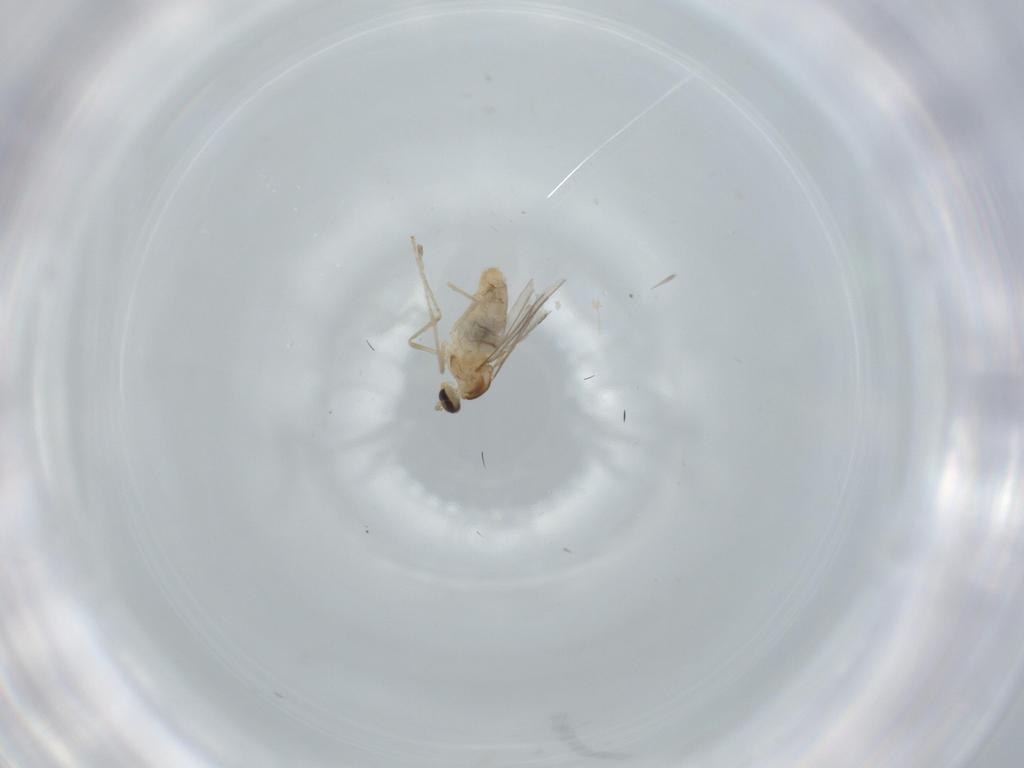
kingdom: Animalia
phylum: Arthropoda
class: Insecta
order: Diptera
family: Cecidomyiidae
